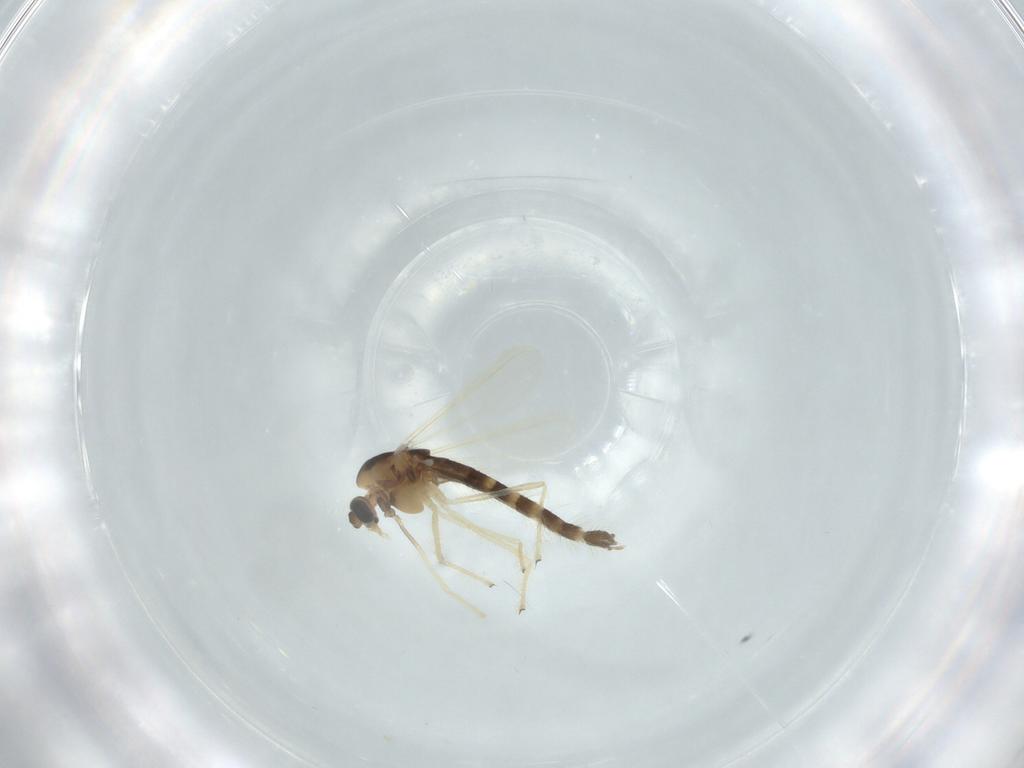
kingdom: Animalia
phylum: Arthropoda
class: Insecta
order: Diptera
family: Chironomidae
